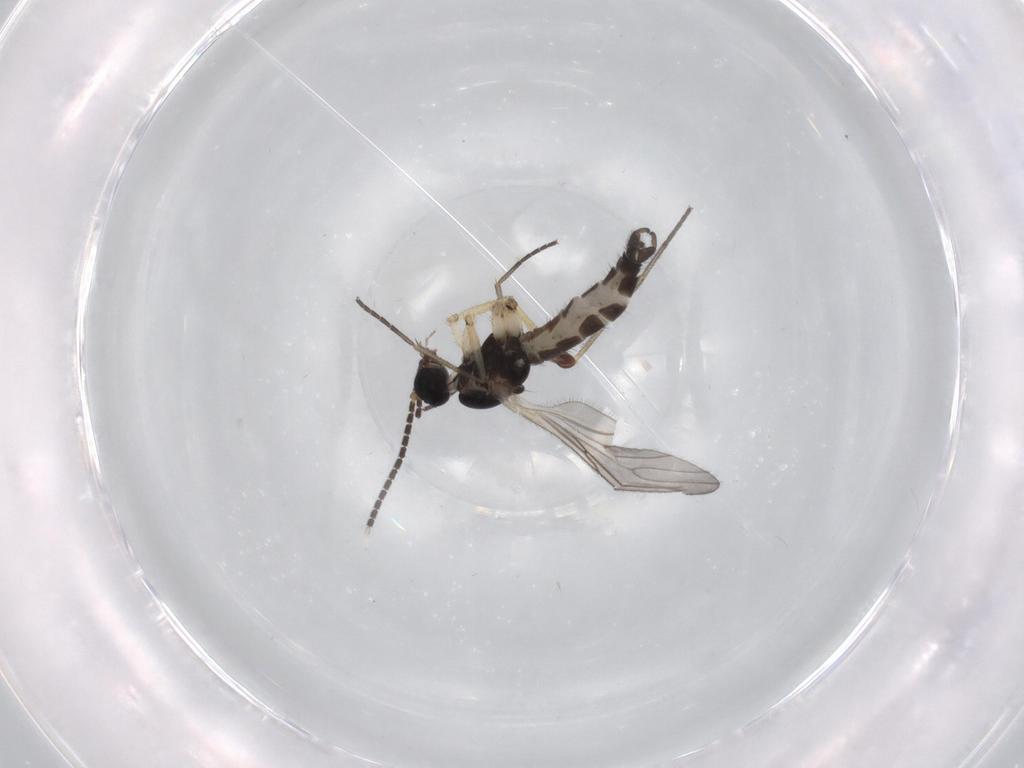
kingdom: Animalia
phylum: Arthropoda
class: Insecta
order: Diptera
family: Sciaridae
